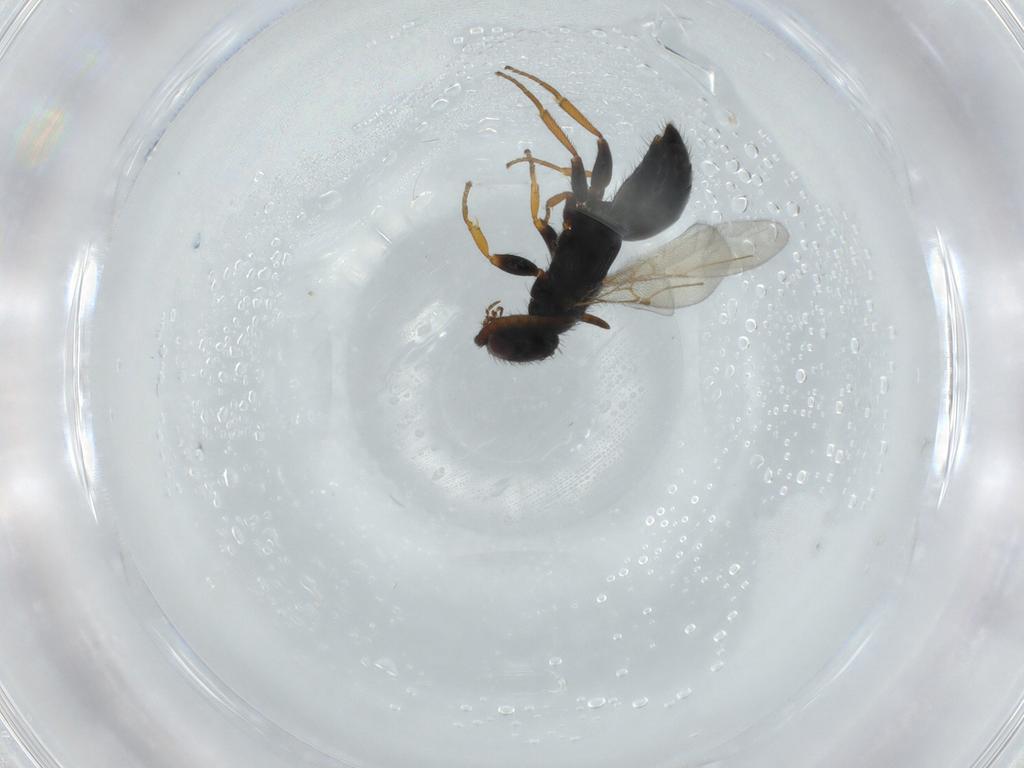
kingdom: Animalia
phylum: Arthropoda
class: Insecta
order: Hymenoptera
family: Bethylidae
